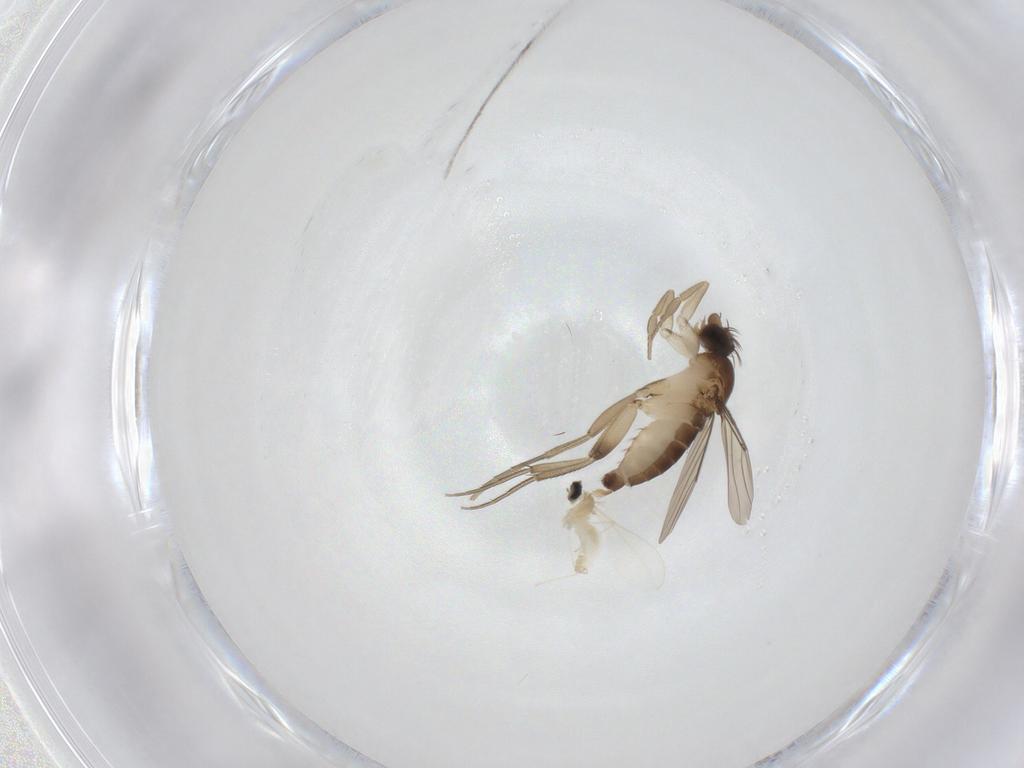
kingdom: Animalia
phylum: Arthropoda
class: Insecta
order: Diptera
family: Cecidomyiidae
